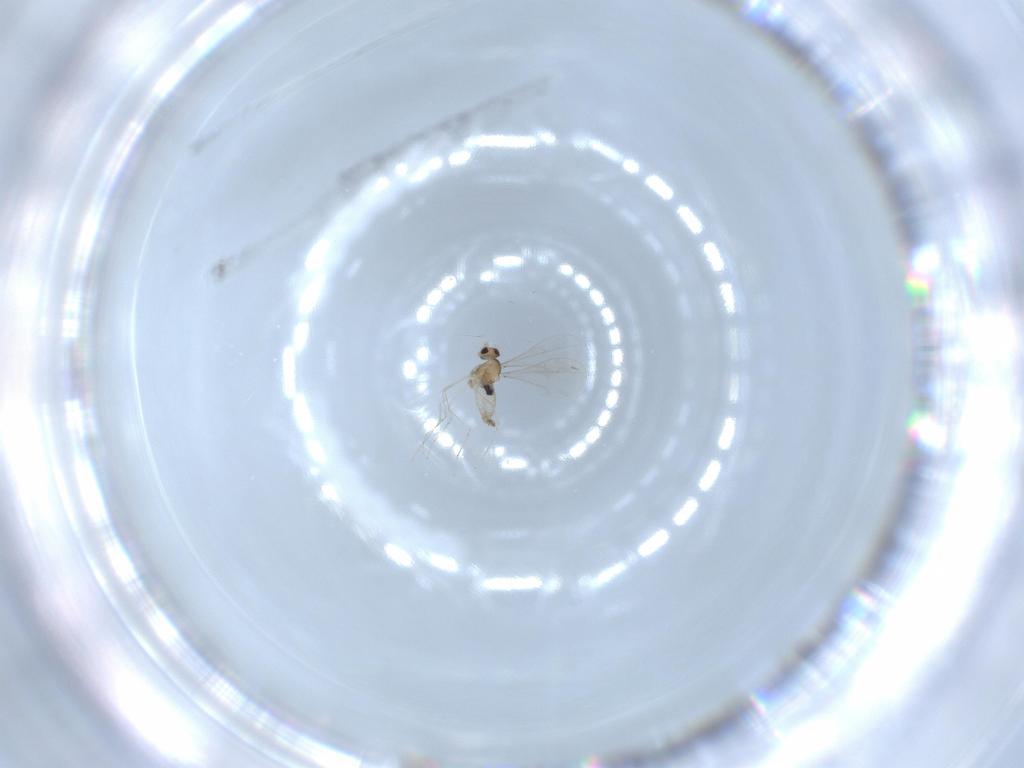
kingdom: Animalia
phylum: Arthropoda
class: Insecta
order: Diptera
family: Cecidomyiidae
